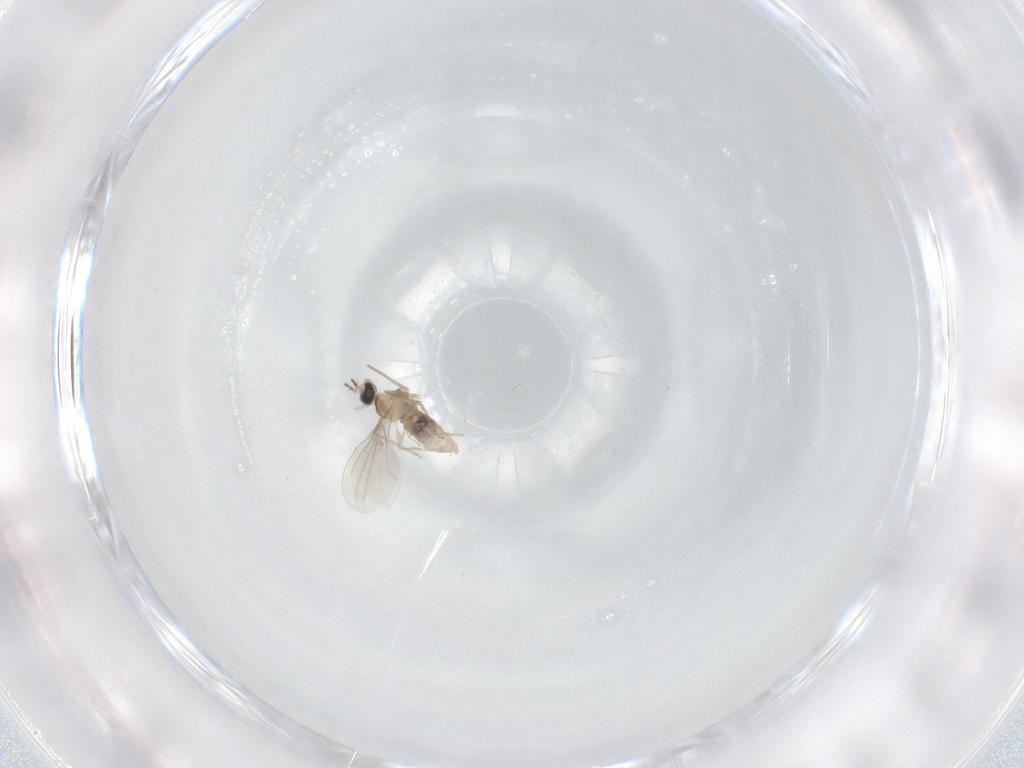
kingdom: Animalia
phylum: Arthropoda
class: Insecta
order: Diptera
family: Cecidomyiidae
